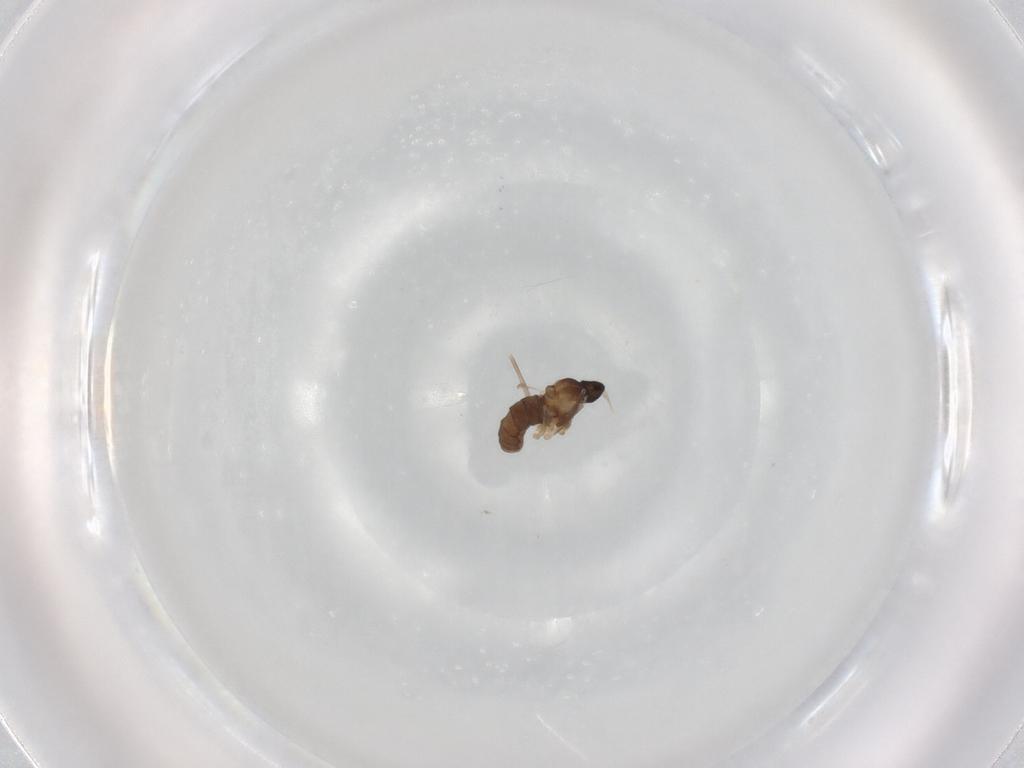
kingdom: Animalia
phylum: Arthropoda
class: Insecta
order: Diptera
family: Cecidomyiidae
